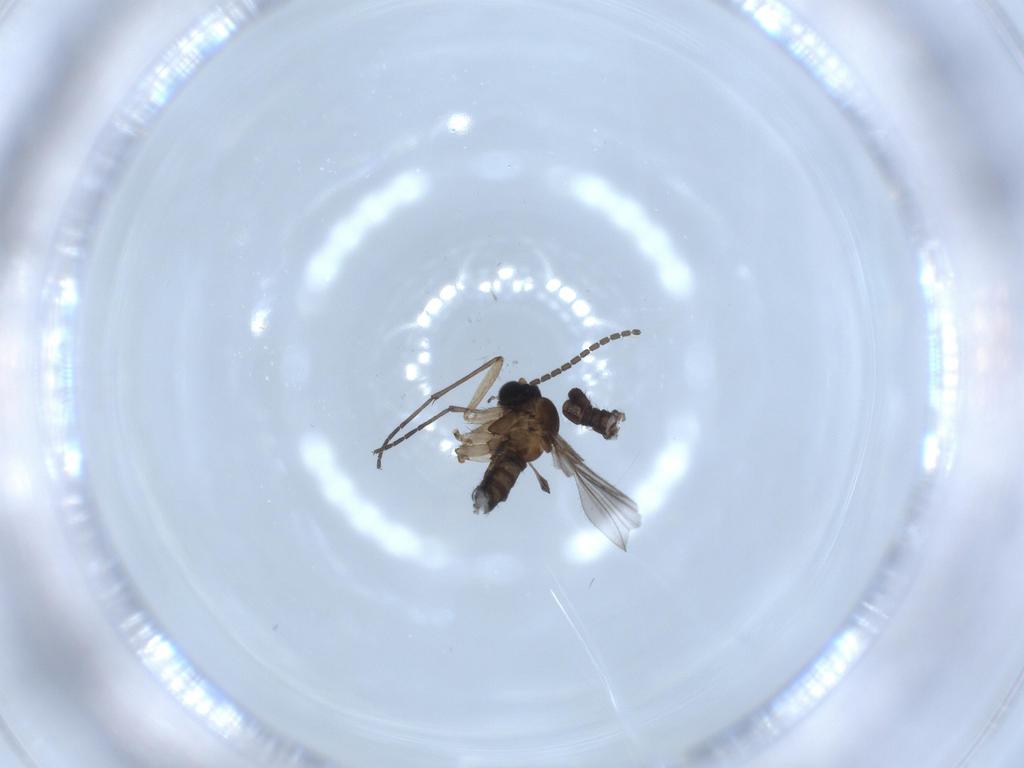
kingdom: Animalia
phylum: Arthropoda
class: Insecta
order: Diptera
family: Sciaridae
